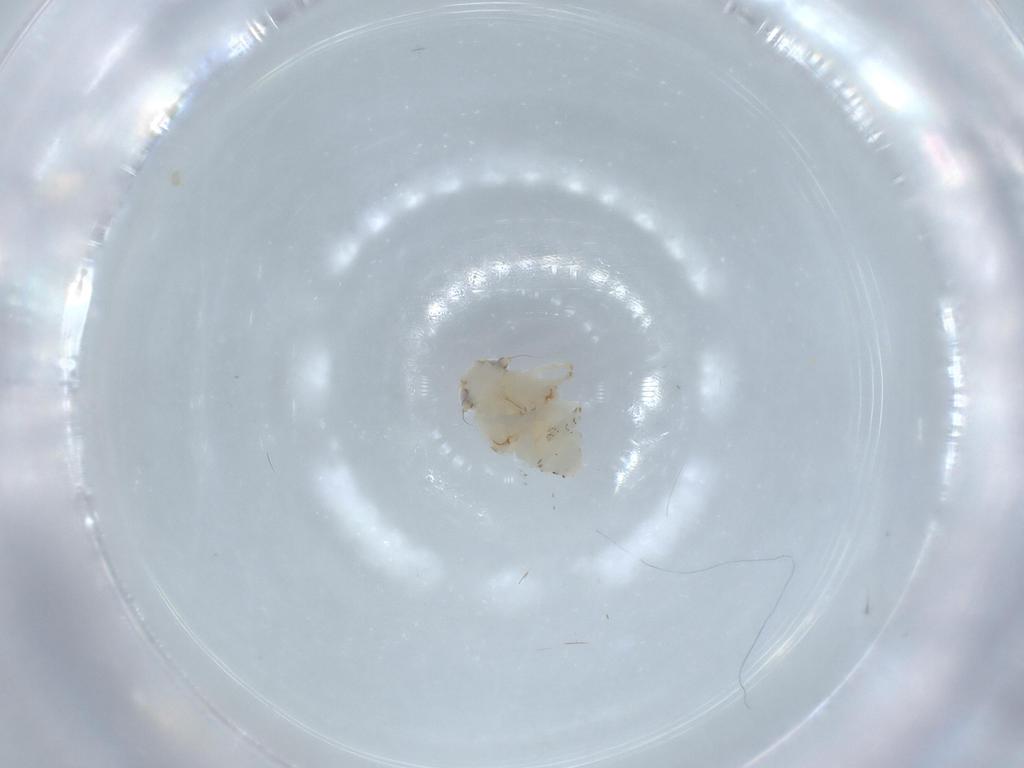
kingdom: Animalia
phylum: Arthropoda
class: Insecta
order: Hemiptera
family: Nogodinidae
